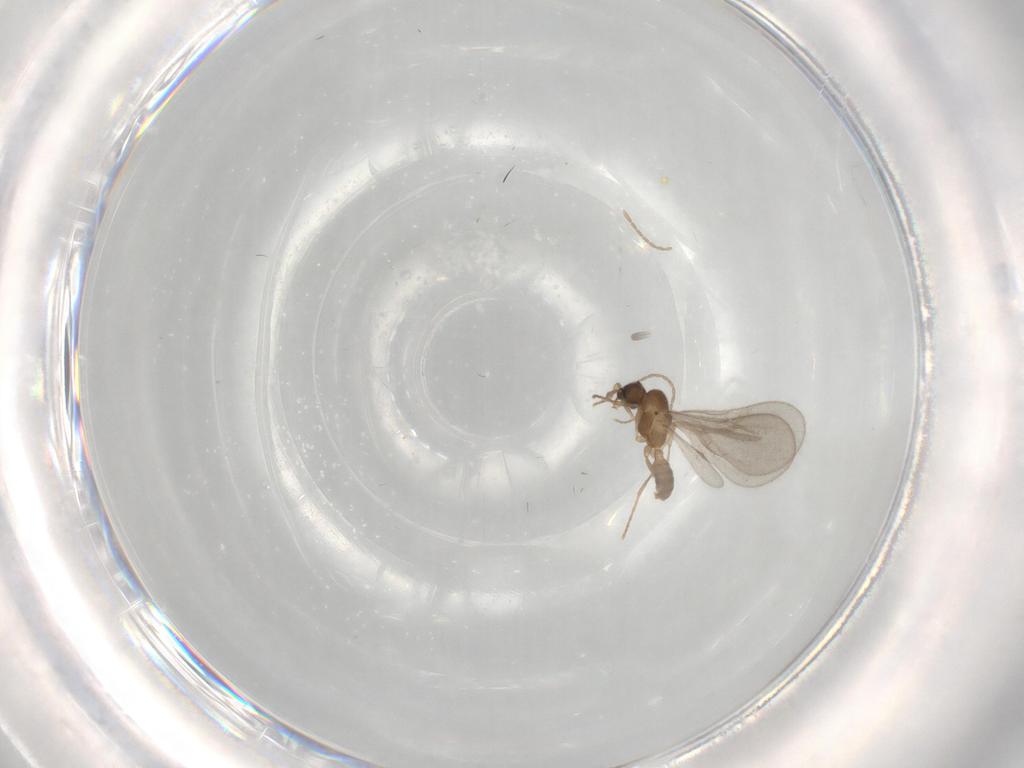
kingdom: Animalia
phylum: Arthropoda
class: Insecta
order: Hymenoptera
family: Formicidae
